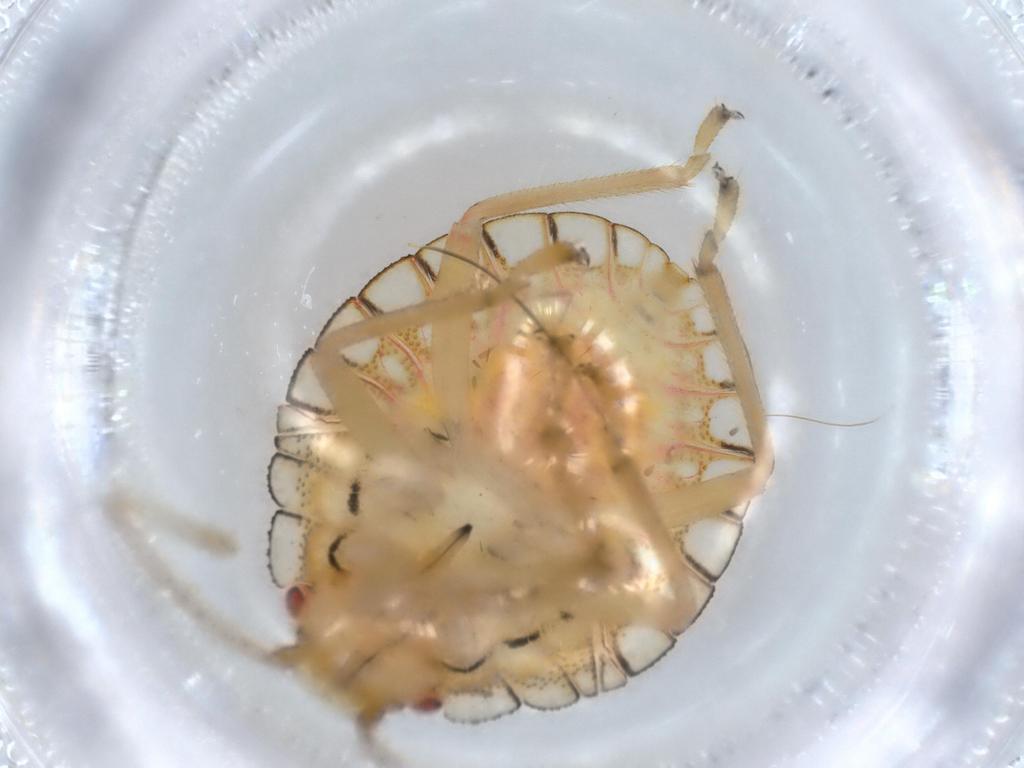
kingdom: Animalia
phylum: Arthropoda
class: Insecta
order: Hemiptera
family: Pentatomidae
